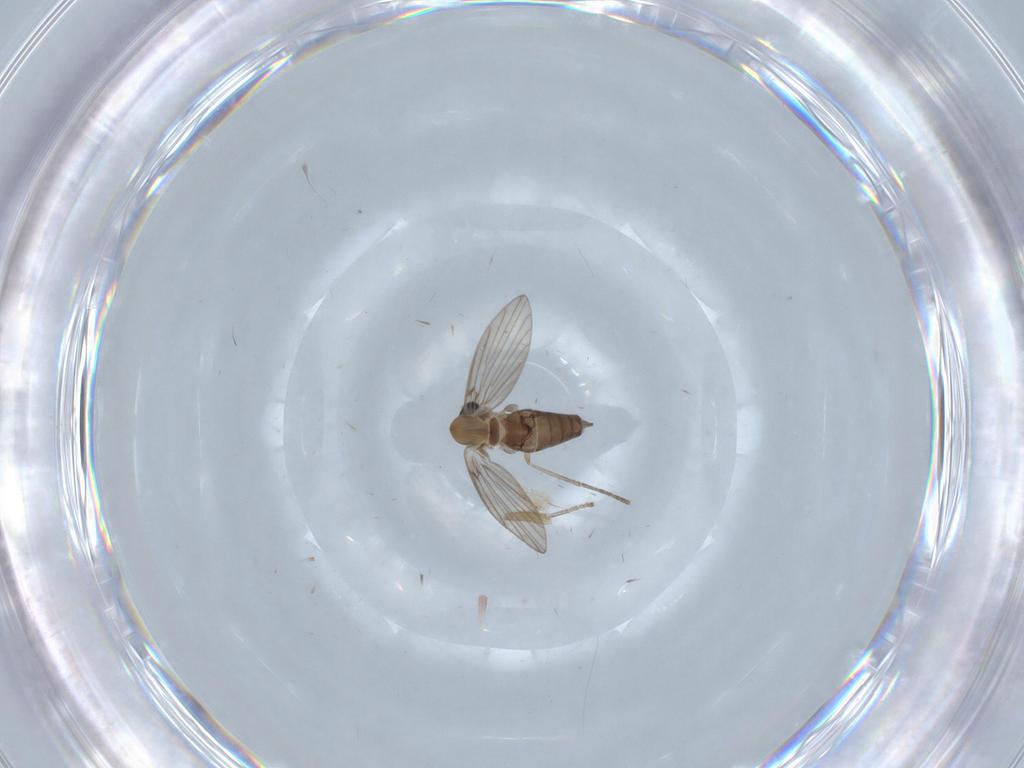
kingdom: Animalia
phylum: Arthropoda
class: Insecta
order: Diptera
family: Drosophilidae
